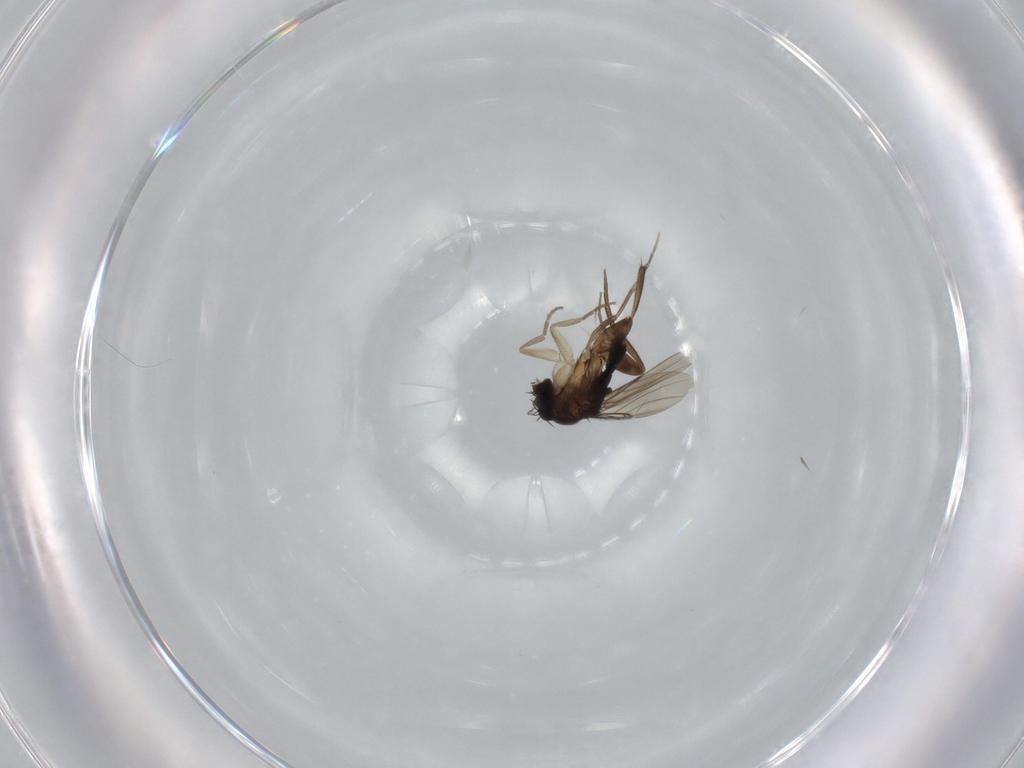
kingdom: Animalia
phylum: Arthropoda
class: Insecta
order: Diptera
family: Phoridae
